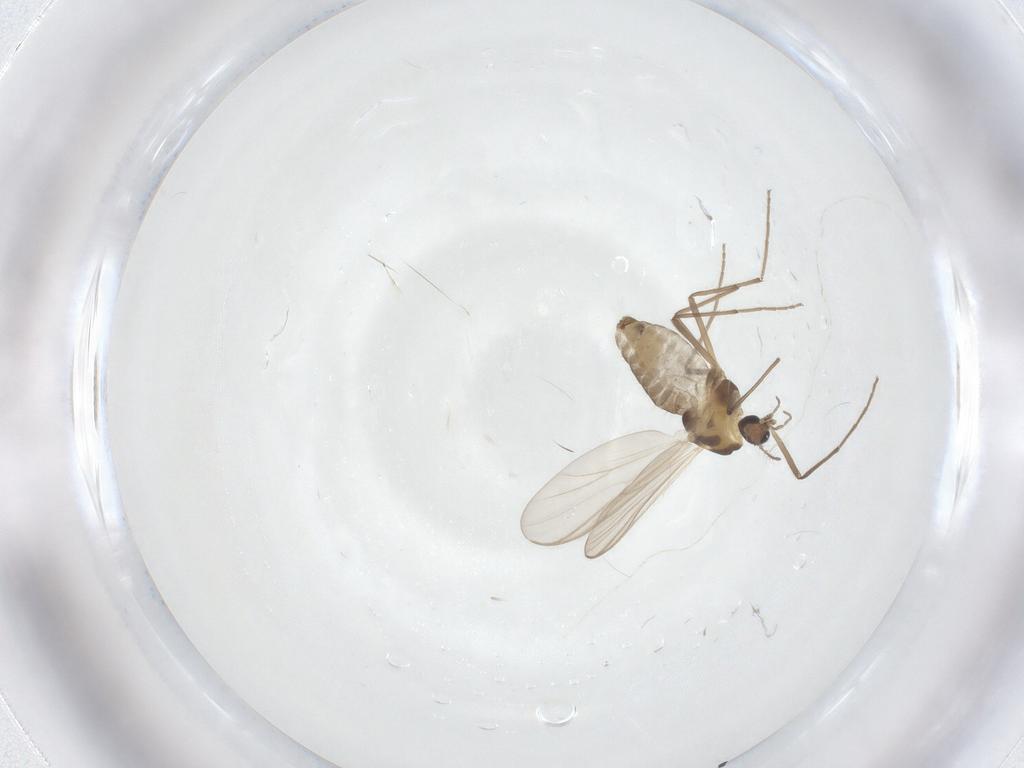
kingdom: Animalia
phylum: Arthropoda
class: Insecta
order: Diptera
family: Chironomidae
